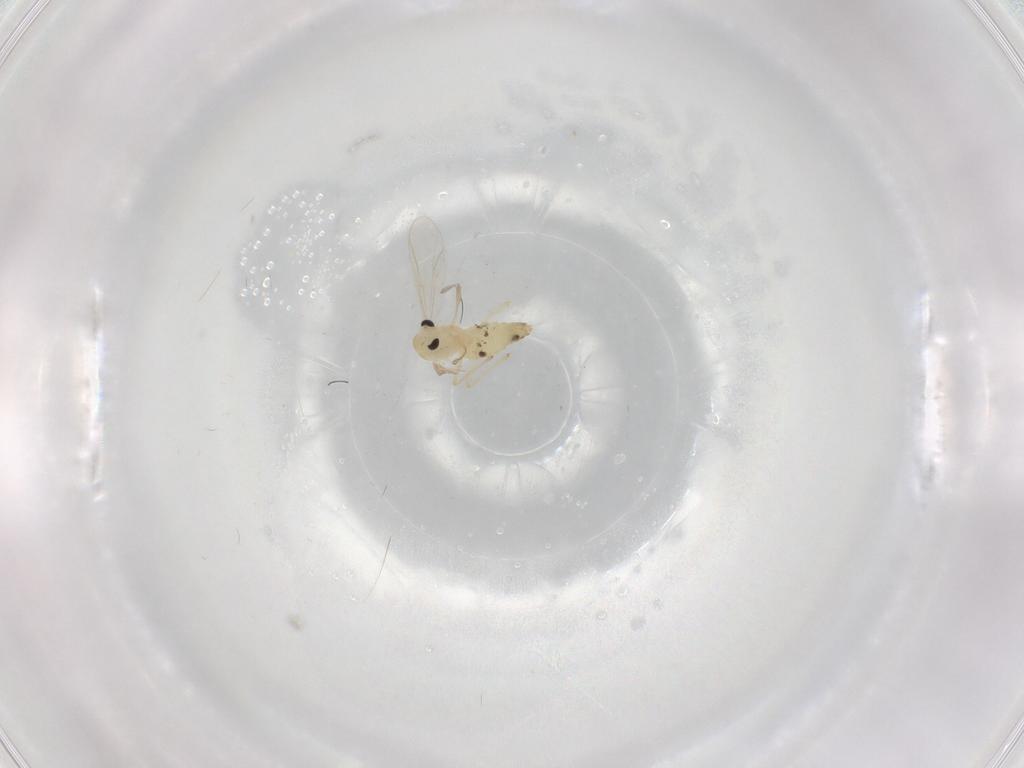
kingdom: Animalia
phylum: Arthropoda
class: Insecta
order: Diptera
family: Chironomidae
